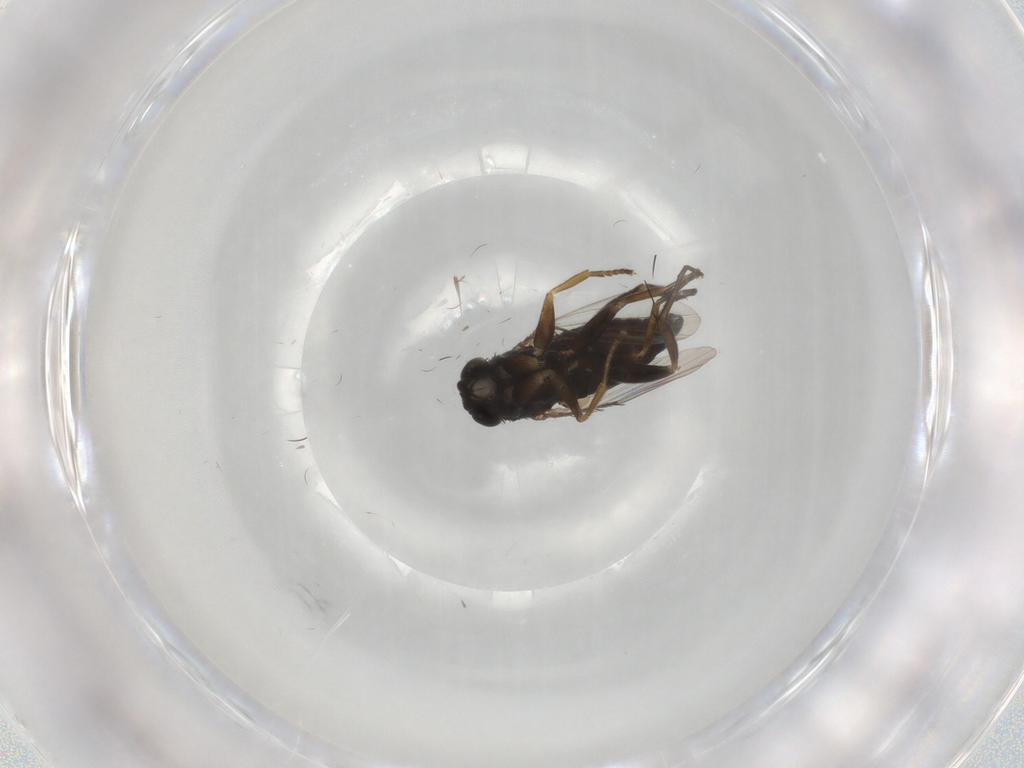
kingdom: Animalia
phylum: Arthropoda
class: Insecta
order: Diptera
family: Phoridae
